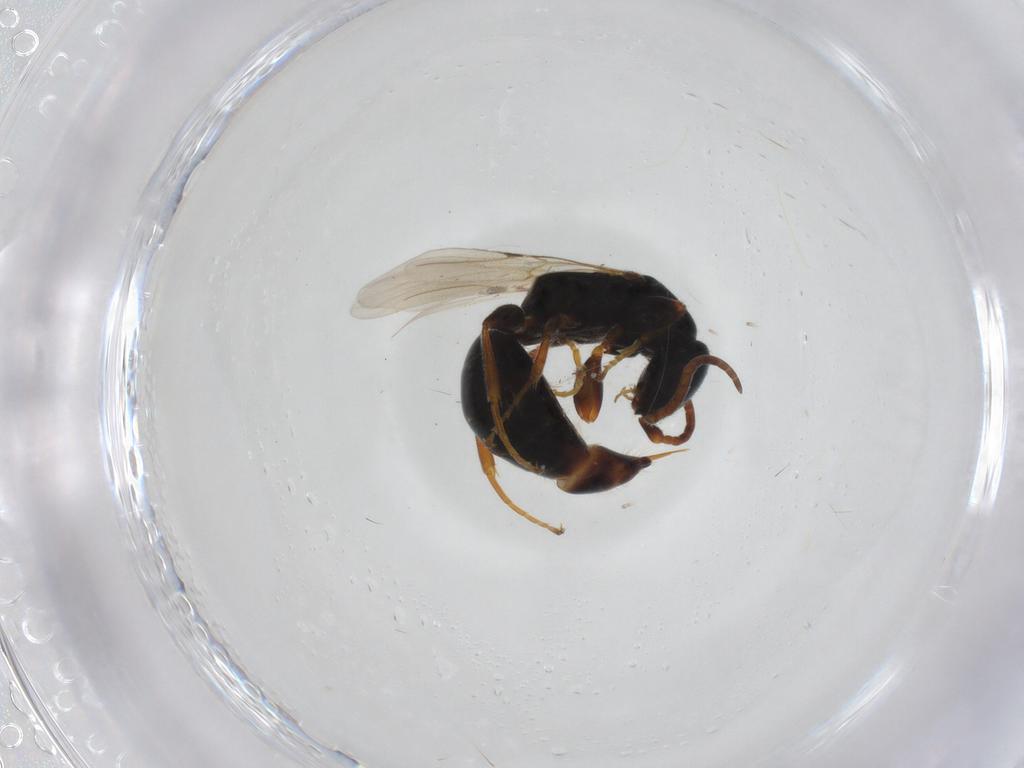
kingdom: Animalia
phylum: Arthropoda
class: Insecta
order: Hymenoptera
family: Bethylidae
